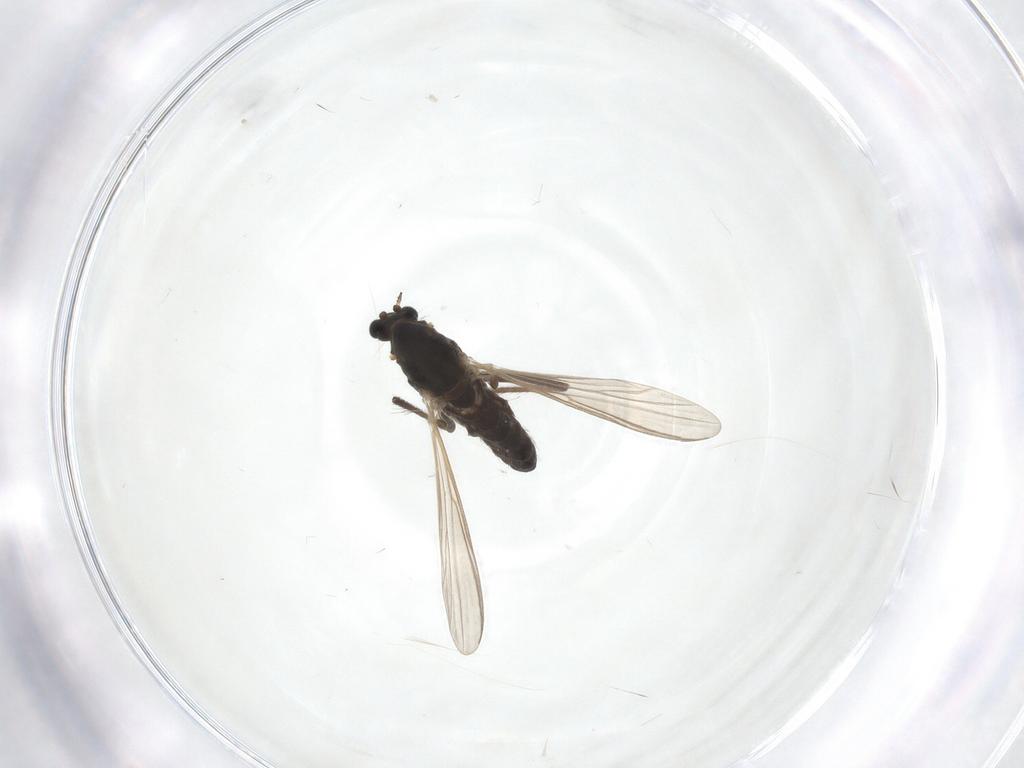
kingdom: Animalia
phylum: Arthropoda
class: Insecta
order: Diptera
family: Chironomidae
